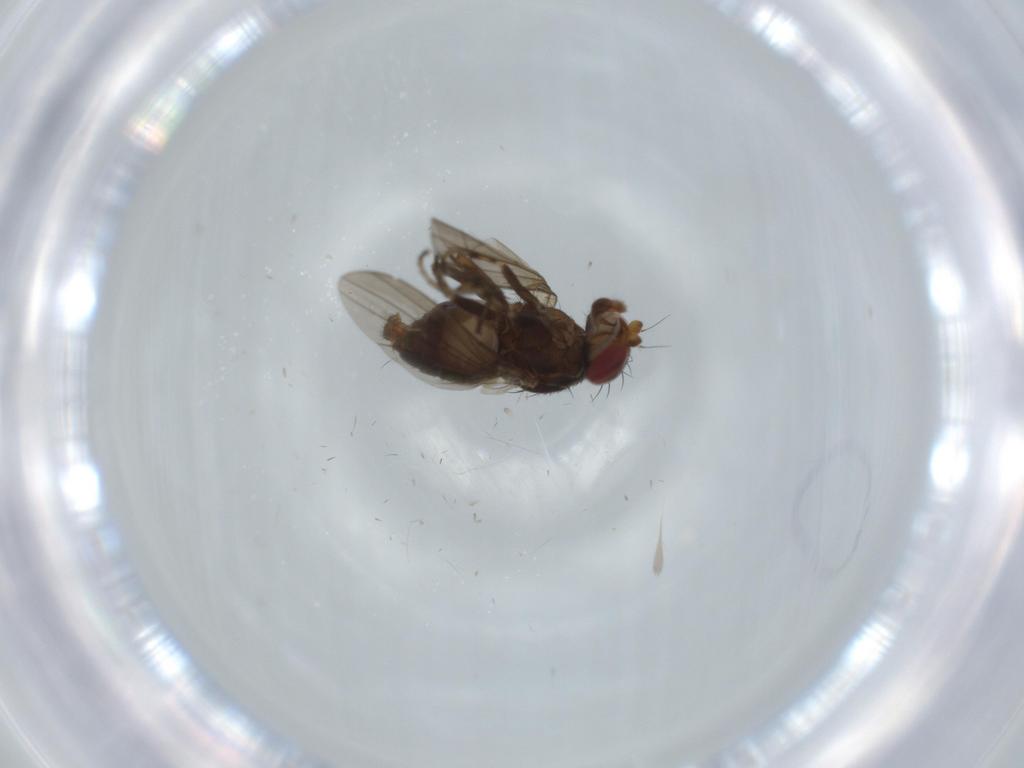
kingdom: Animalia
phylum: Arthropoda
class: Insecta
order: Diptera
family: Heleomyzidae
